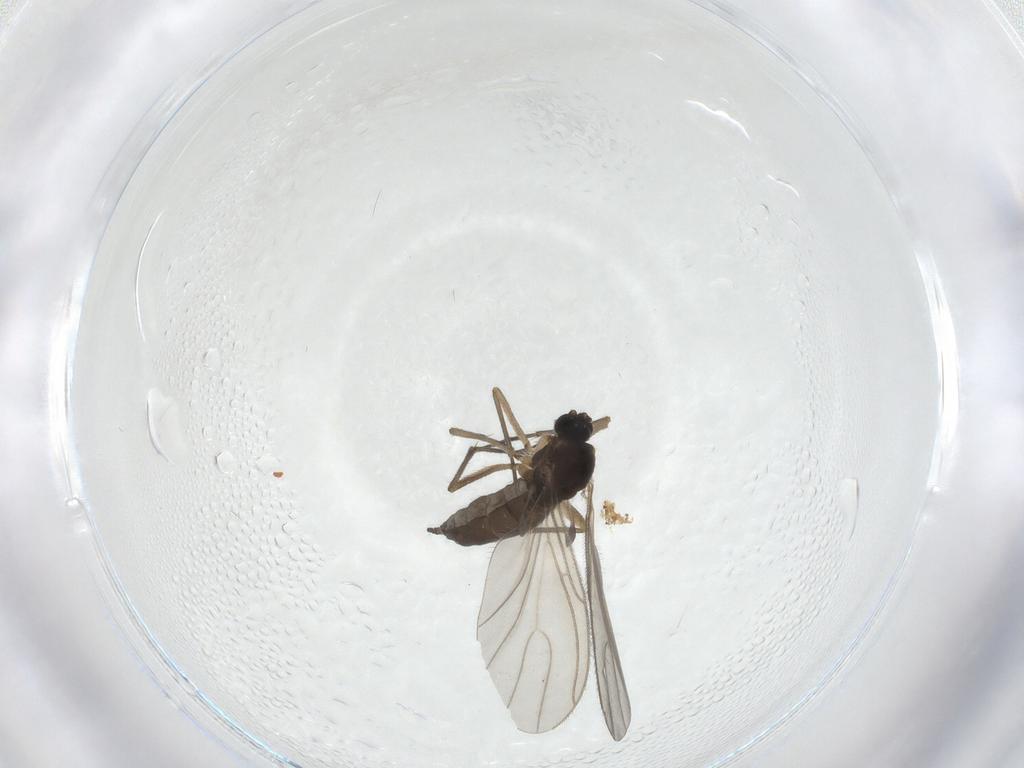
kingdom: Animalia
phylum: Arthropoda
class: Insecta
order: Diptera
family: Sciaridae
